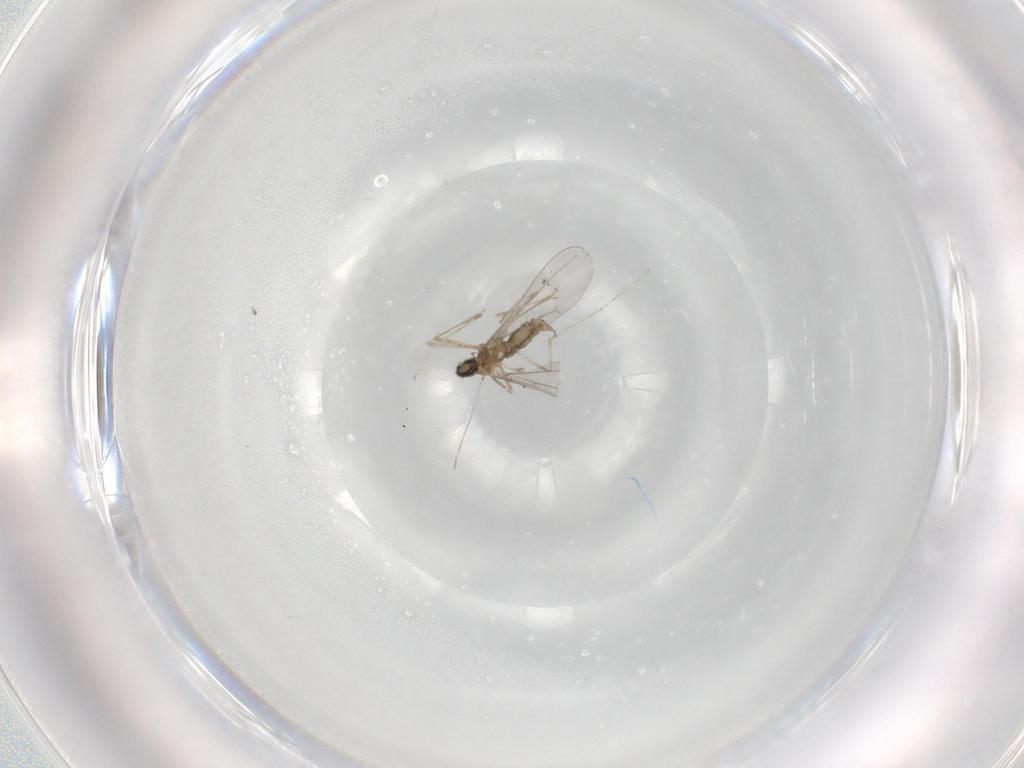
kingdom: Animalia
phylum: Arthropoda
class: Insecta
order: Diptera
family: Cecidomyiidae
